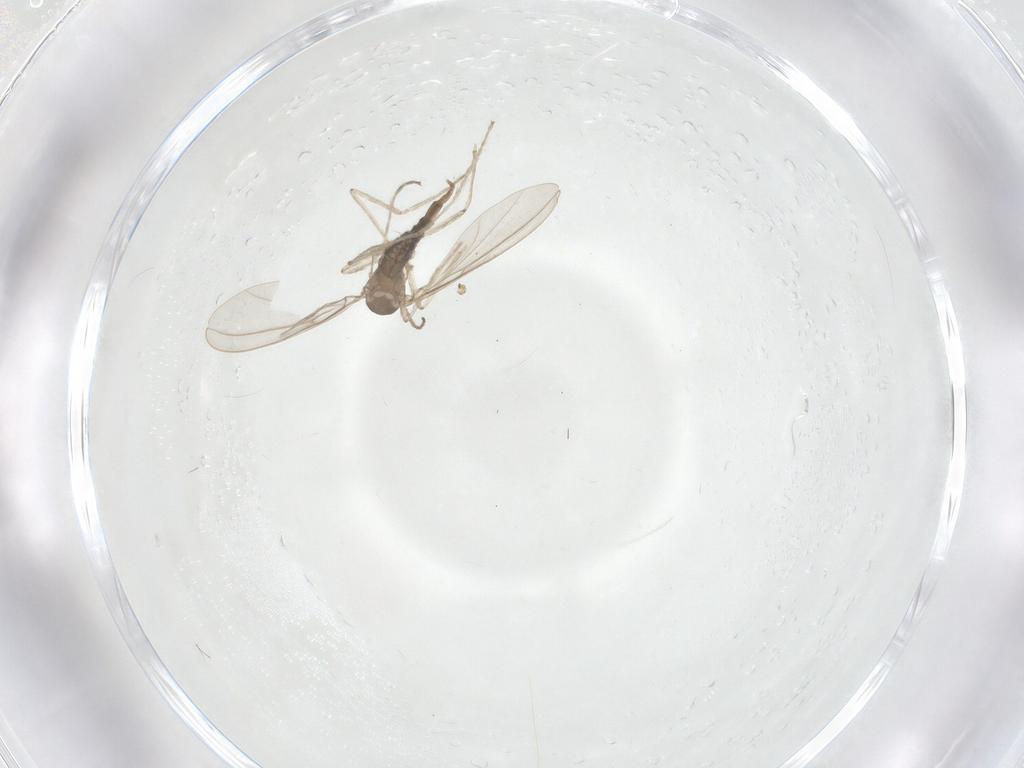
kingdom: Animalia
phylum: Arthropoda
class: Insecta
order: Diptera
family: Cecidomyiidae
